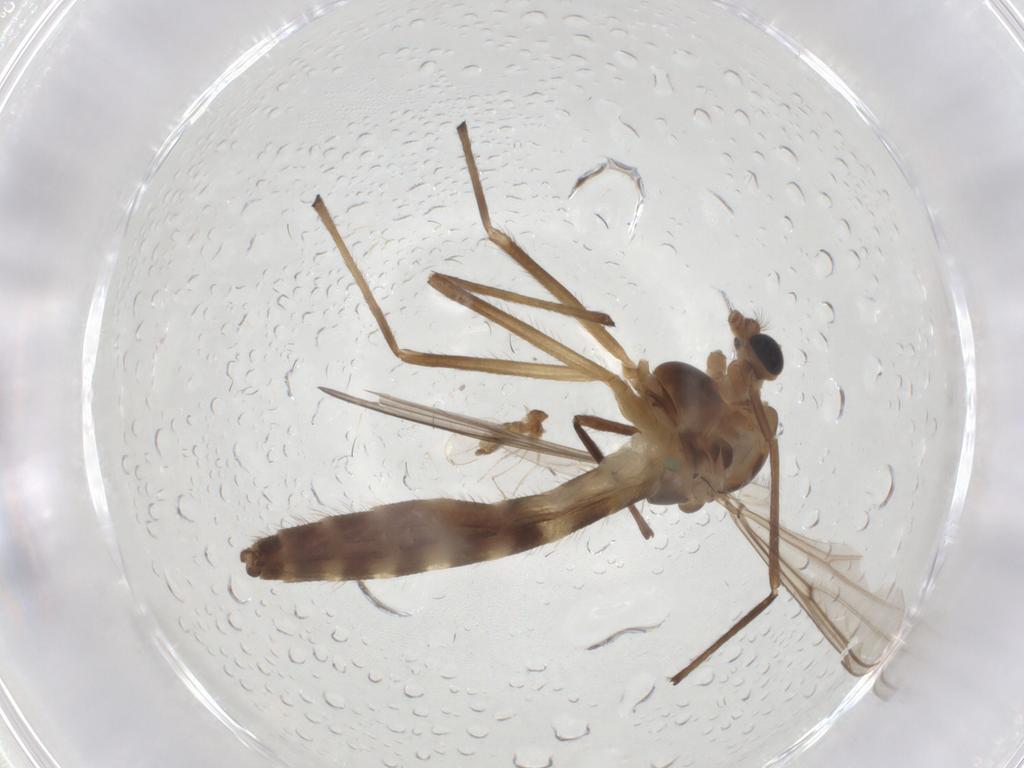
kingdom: Animalia
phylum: Arthropoda
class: Insecta
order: Diptera
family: Chironomidae
